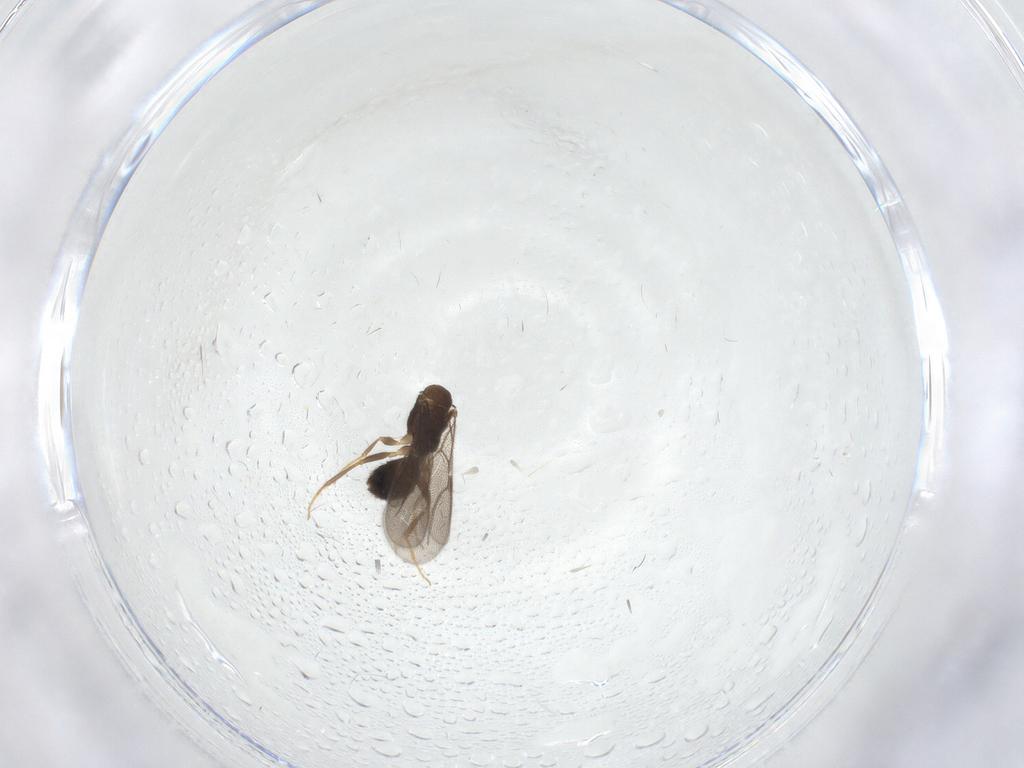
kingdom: Animalia
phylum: Arthropoda
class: Insecta
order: Hymenoptera
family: Bethylidae
